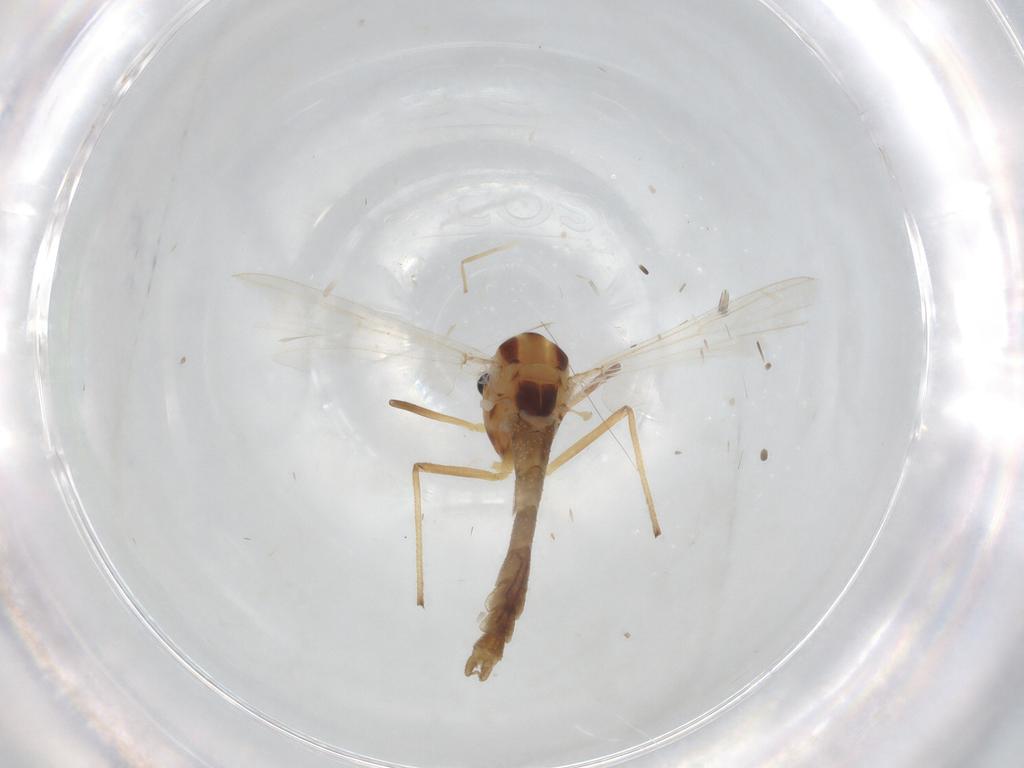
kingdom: Animalia
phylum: Arthropoda
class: Insecta
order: Diptera
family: Chironomidae
